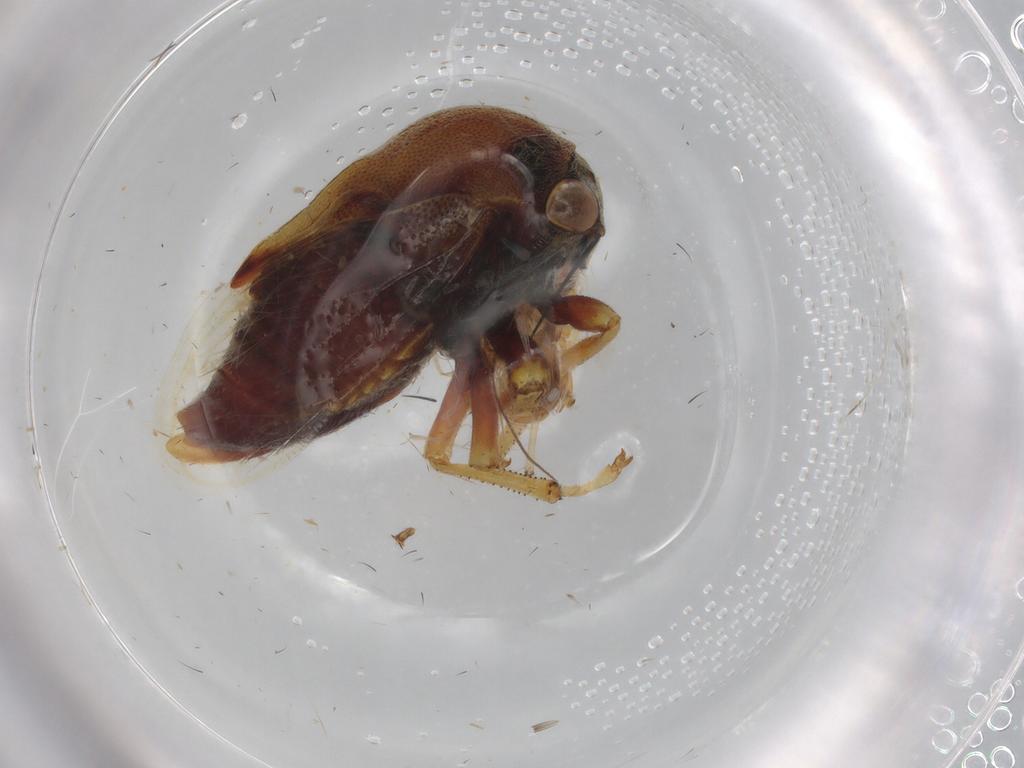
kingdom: Animalia
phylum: Arthropoda
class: Insecta
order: Hemiptera
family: Membracidae
